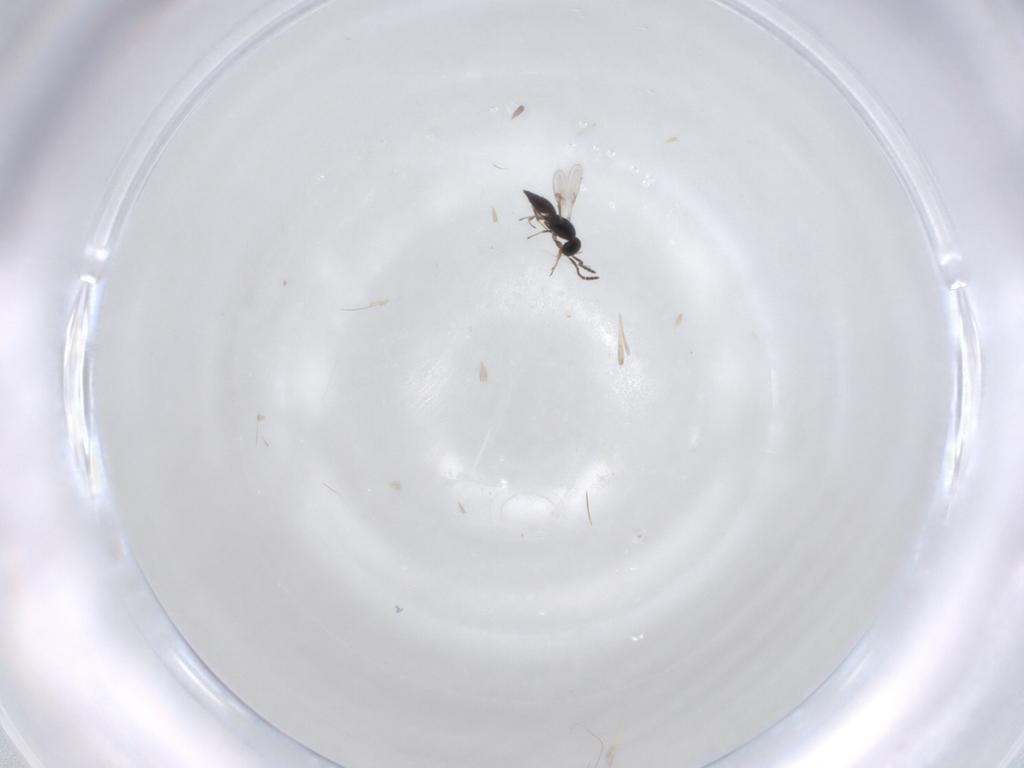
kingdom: Animalia
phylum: Arthropoda
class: Insecta
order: Hymenoptera
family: Scelionidae
